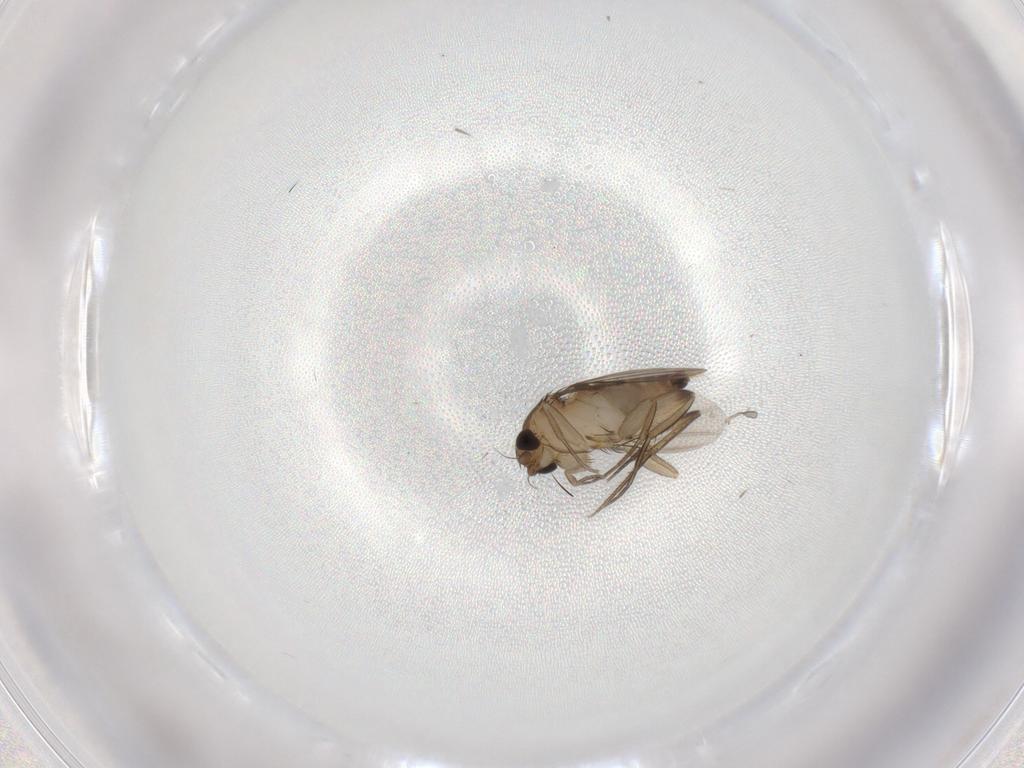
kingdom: Animalia
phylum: Arthropoda
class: Insecta
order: Diptera
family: Sciaridae
